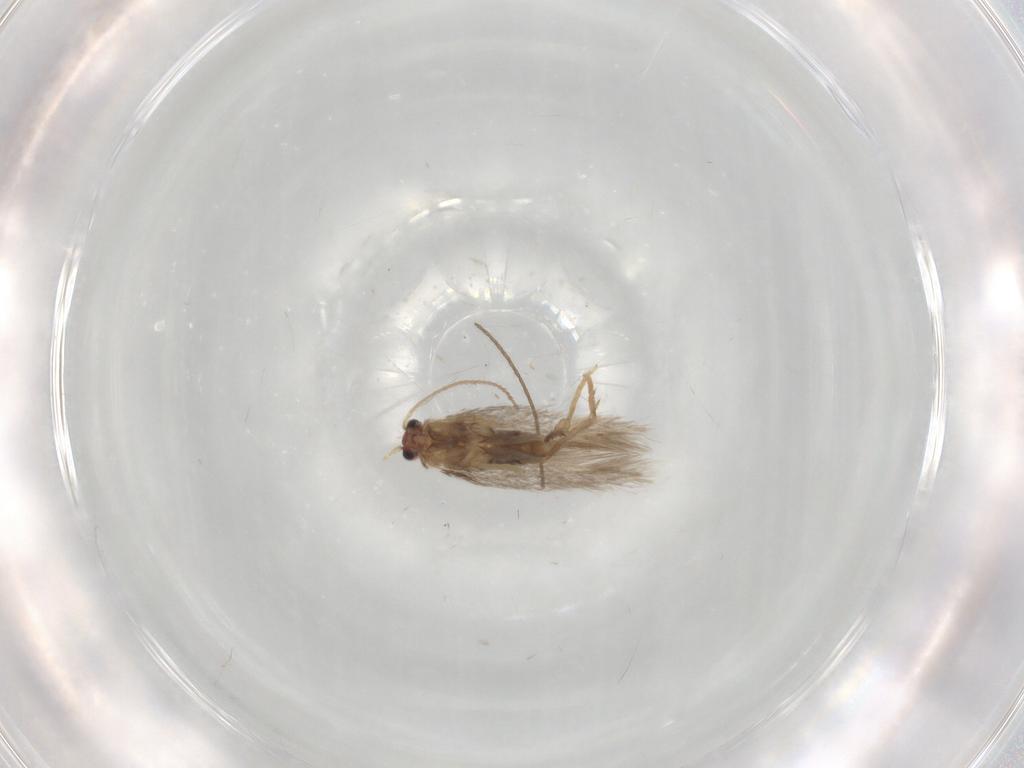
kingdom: Animalia
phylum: Arthropoda
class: Insecta
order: Lepidoptera
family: Nepticulidae
